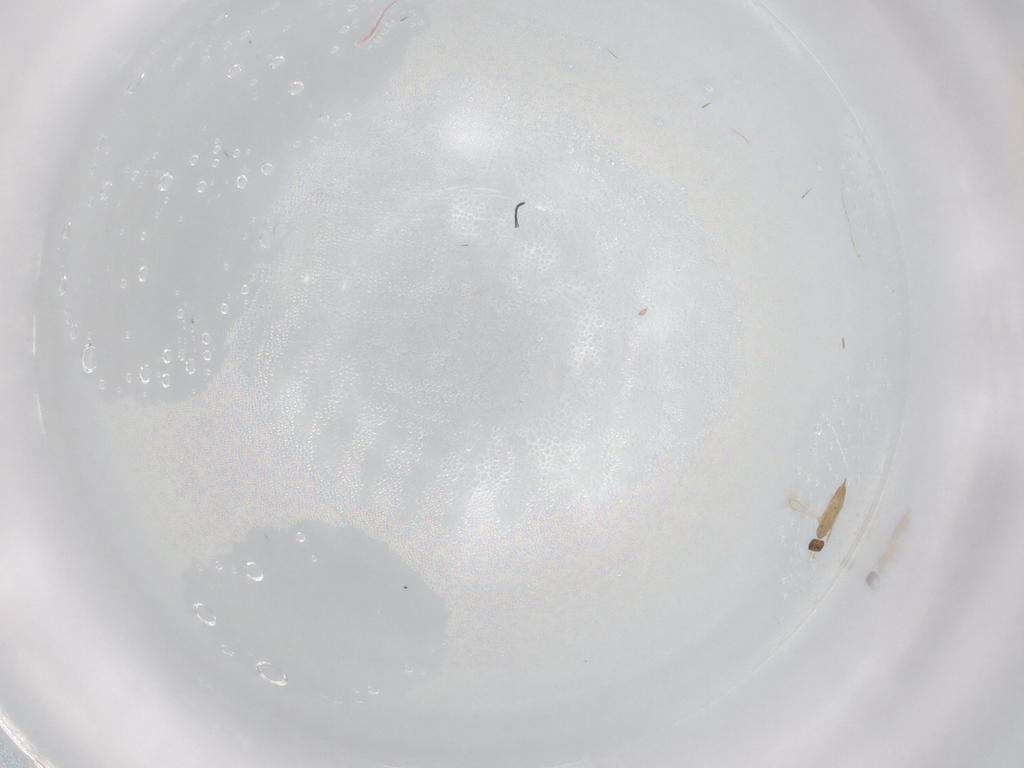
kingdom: Animalia
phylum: Arthropoda
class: Insecta
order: Hymenoptera
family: Mymaridae
